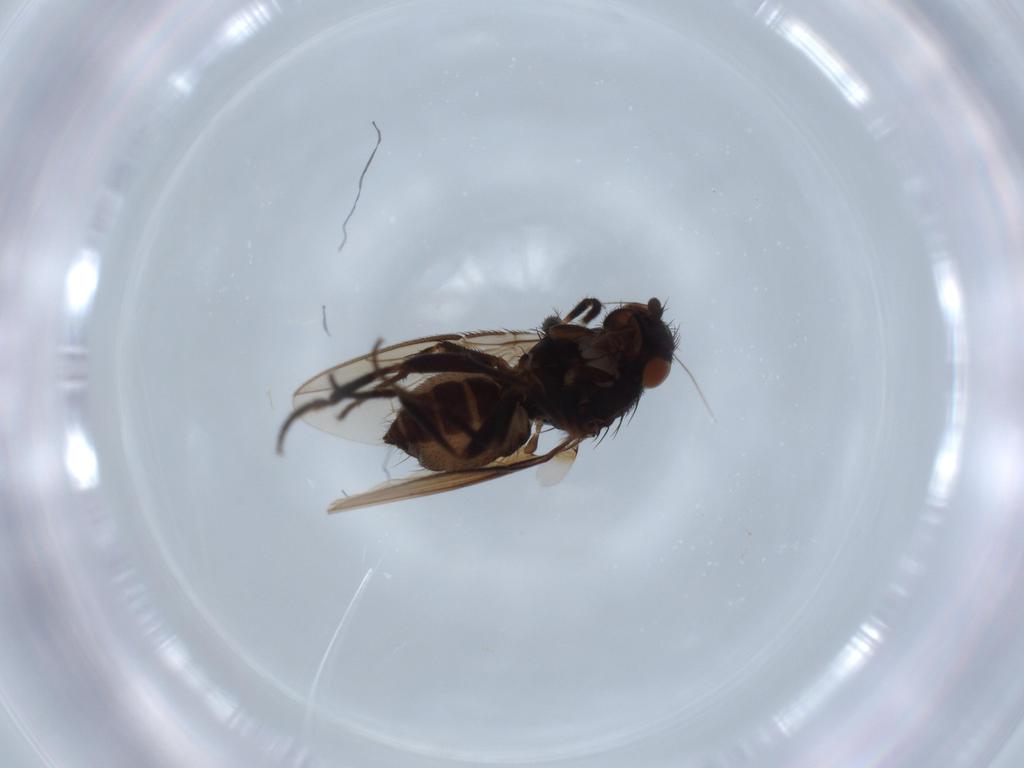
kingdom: Animalia
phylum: Arthropoda
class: Insecta
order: Diptera
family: Sphaeroceridae
